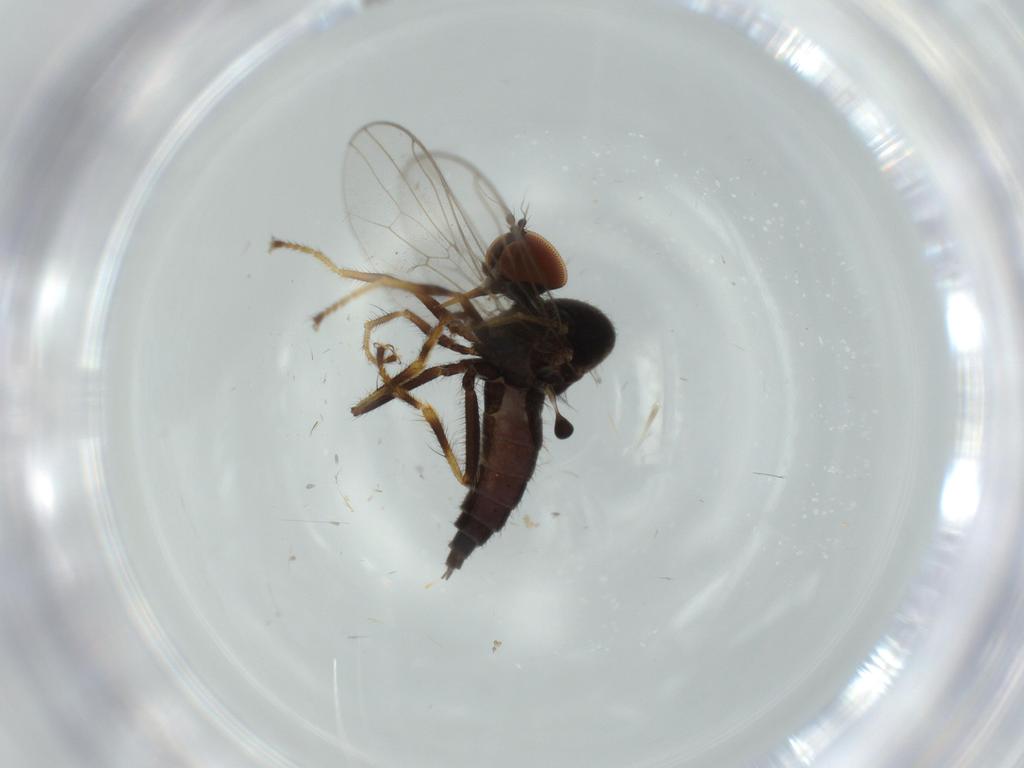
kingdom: Animalia
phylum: Arthropoda
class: Insecta
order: Diptera
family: Hybotidae
